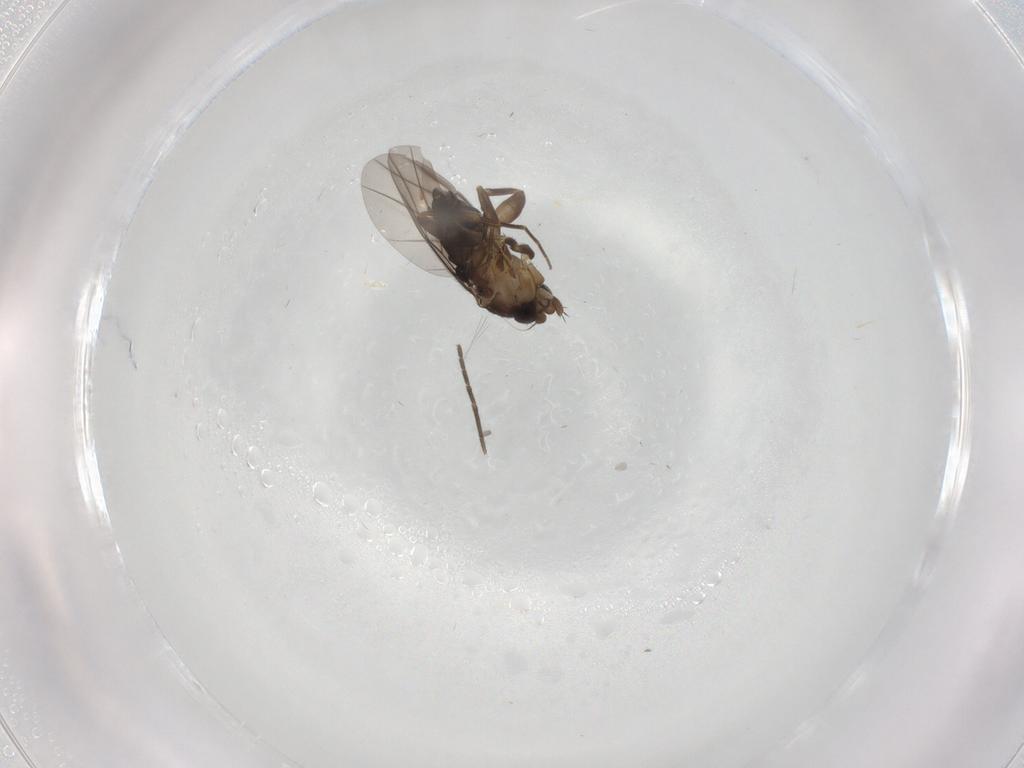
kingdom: Animalia
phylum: Arthropoda
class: Insecta
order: Diptera
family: Phoridae
